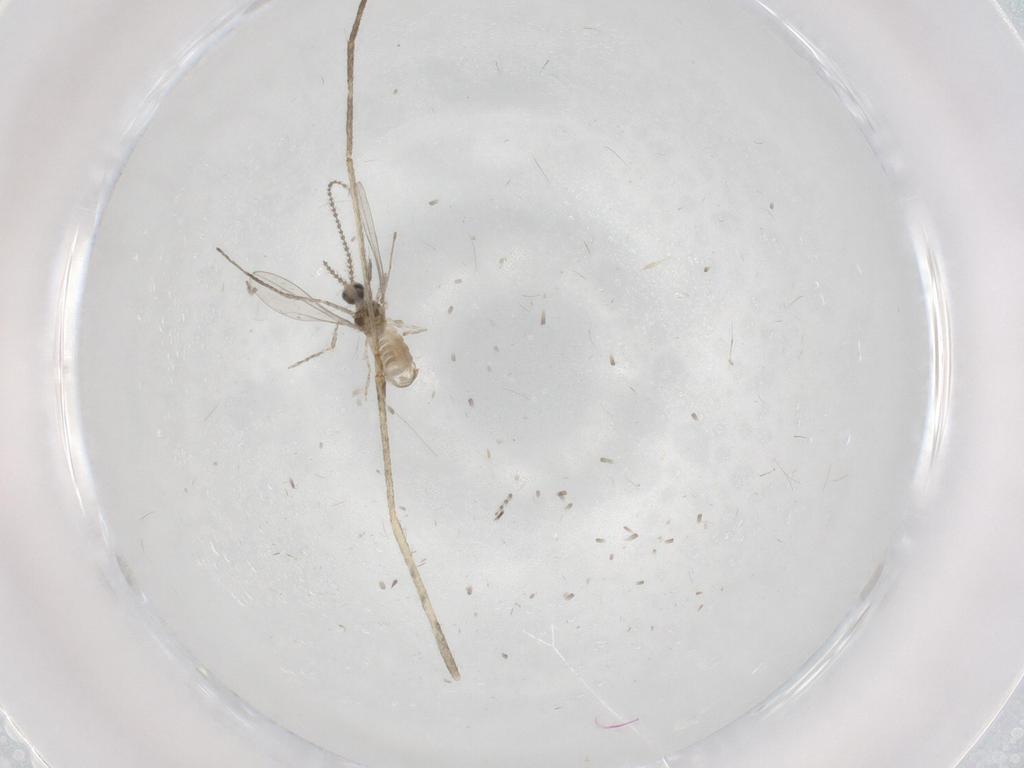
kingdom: Animalia
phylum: Arthropoda
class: Insecta
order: Diptera
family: Cecidomyiidae
